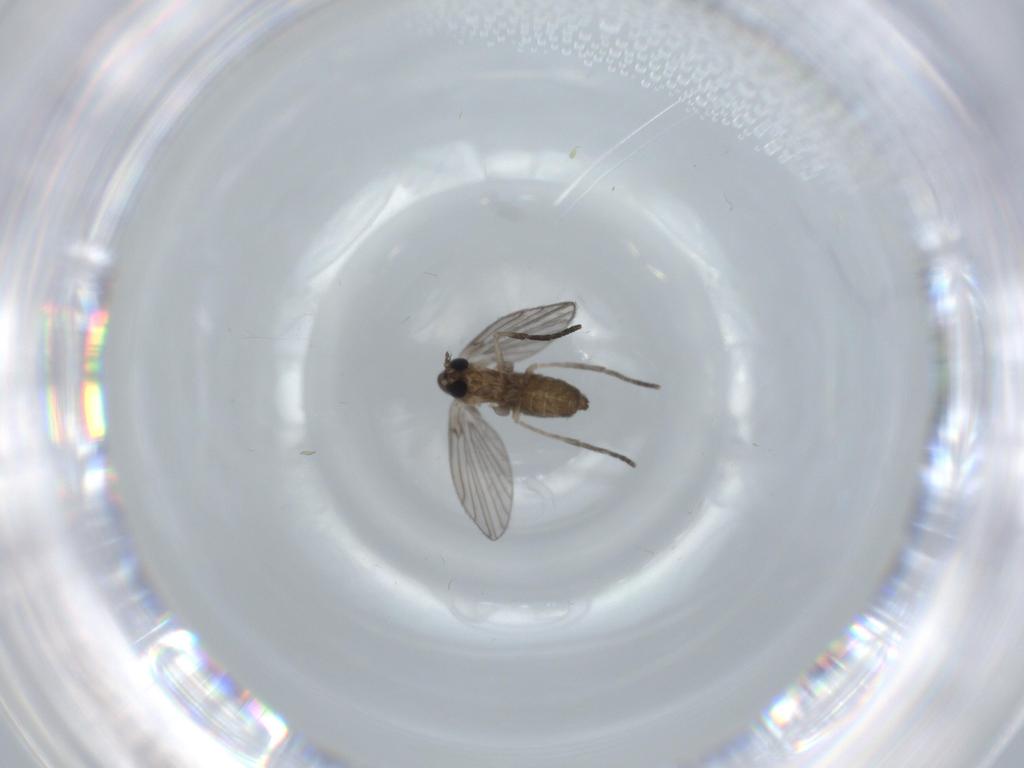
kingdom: Animalia
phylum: Arthropoda
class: Insecta
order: Diptera
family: Psychodidae
